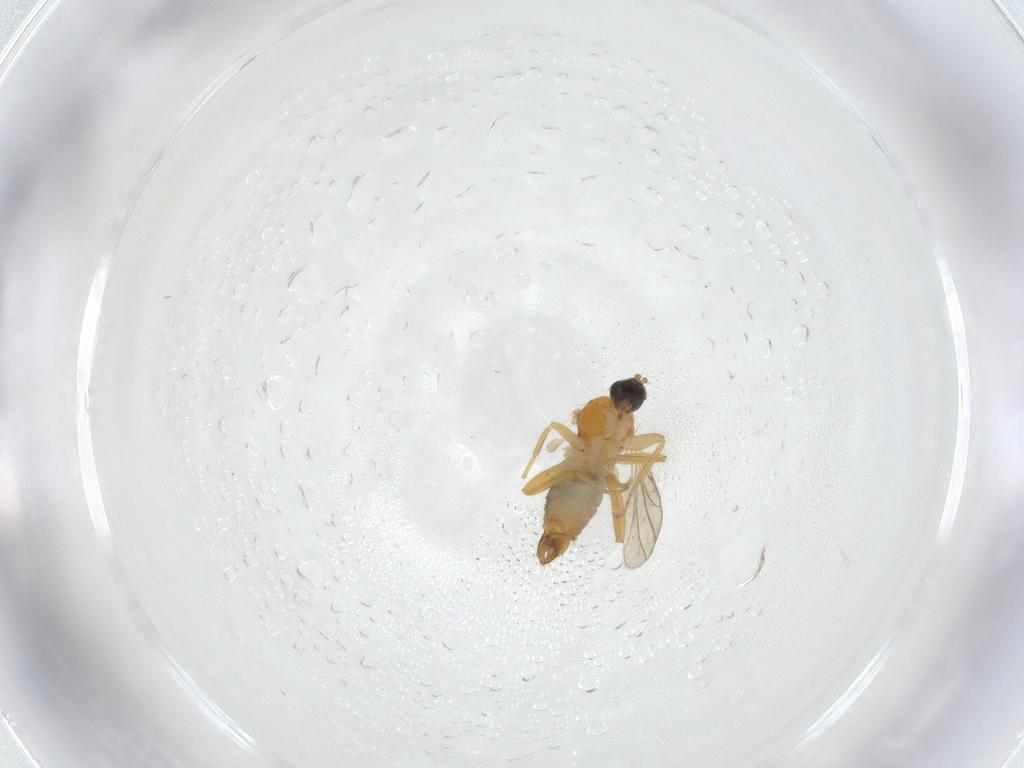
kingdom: Animalia
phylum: Arthropoda
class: Insecta
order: Diptera
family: Hybotidae
